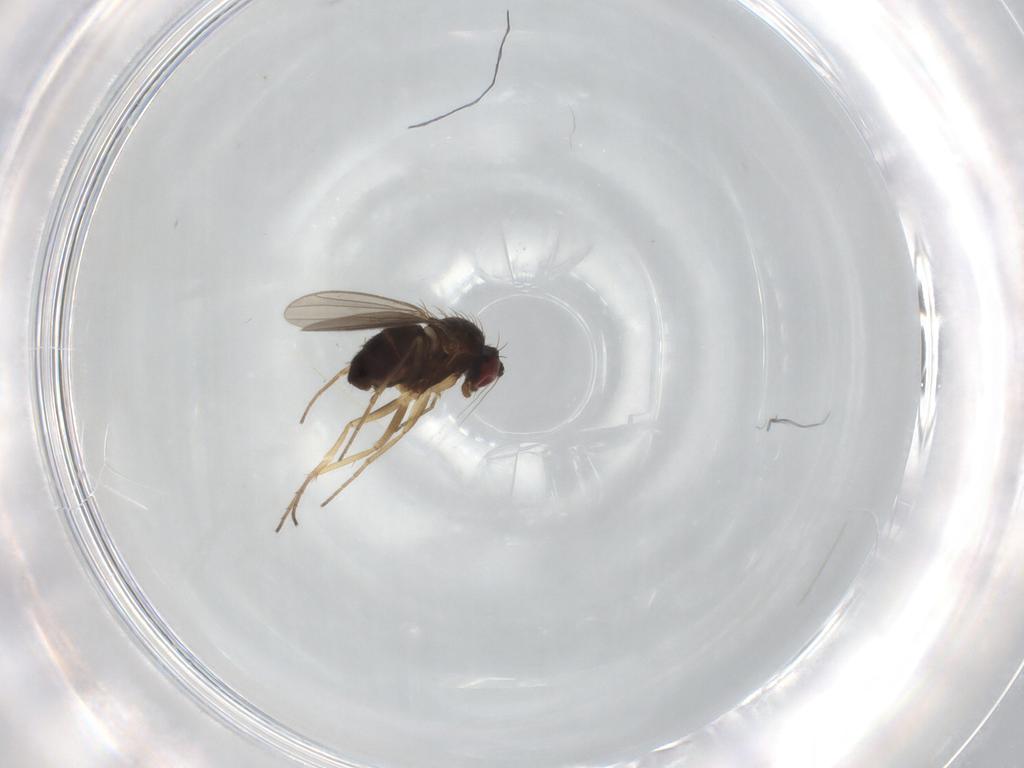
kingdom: Animalia
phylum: Arthropoda
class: Insecta
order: Diptera
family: Dolichopodidae
